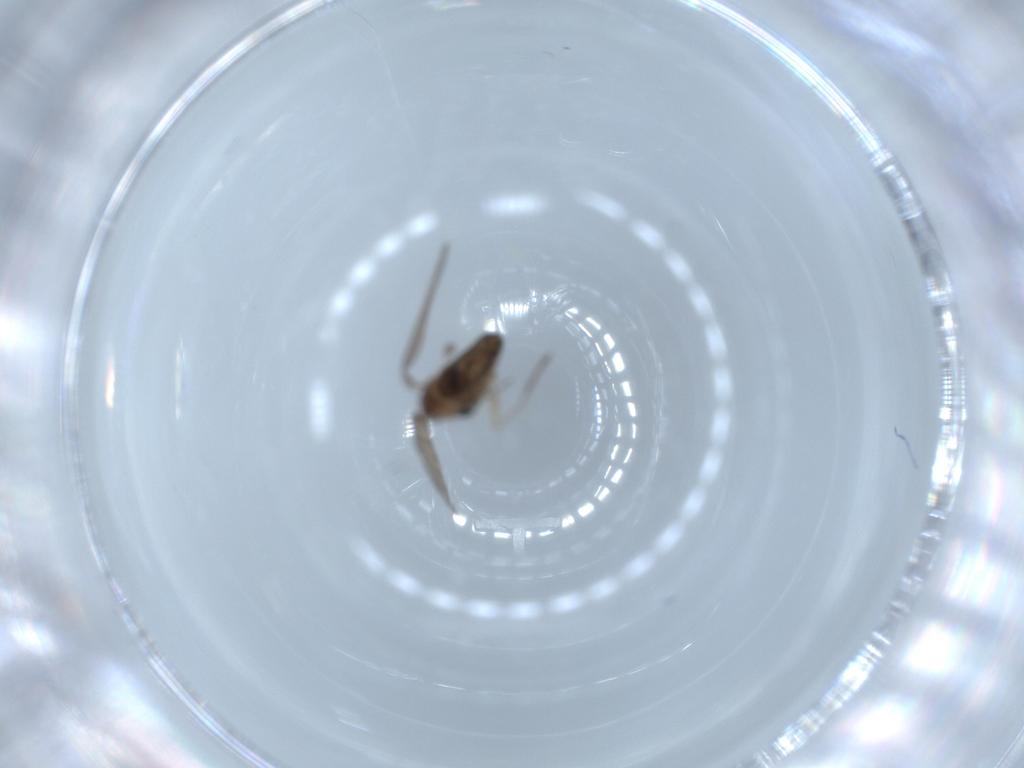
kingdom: Animalia
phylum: Arthropoda
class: Insecta
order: Diptera
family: Psychodidae
